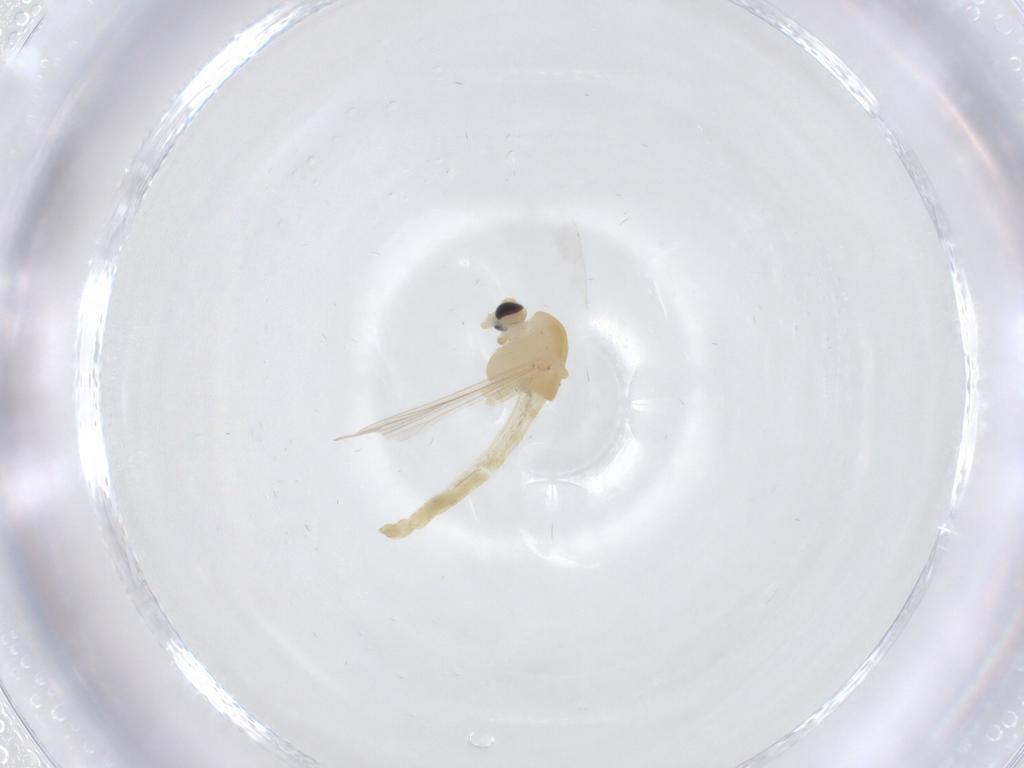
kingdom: Animalia
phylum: Arthropoda
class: Insecta
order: Diptera
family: Chironomidae
